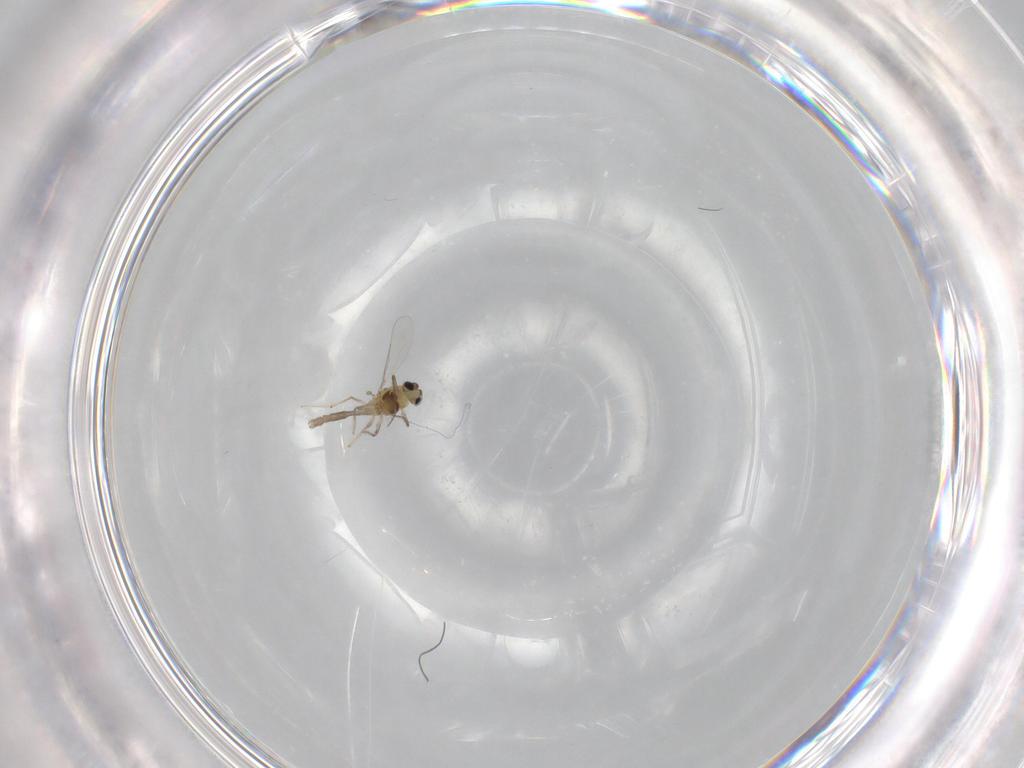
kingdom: Animalia
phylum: Arthropoda
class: Insecta
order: Diptera
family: Chironomidae
